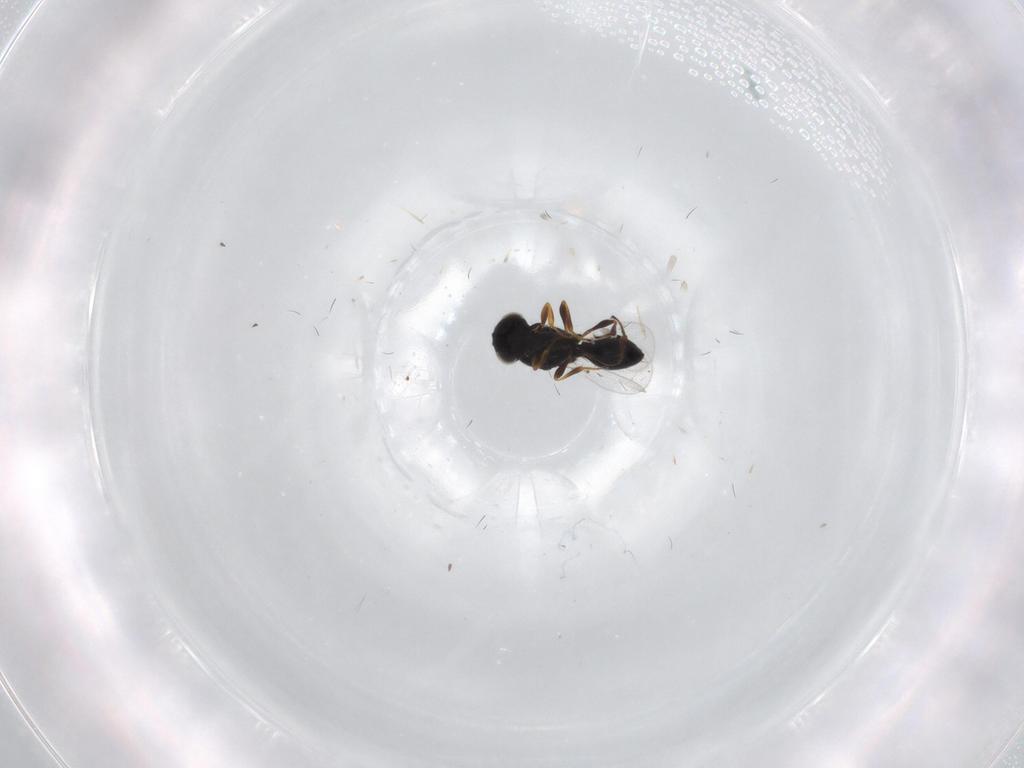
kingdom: Animalia
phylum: Arthropoda
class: Insecta
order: Hymenoptera
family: Platygastridae
